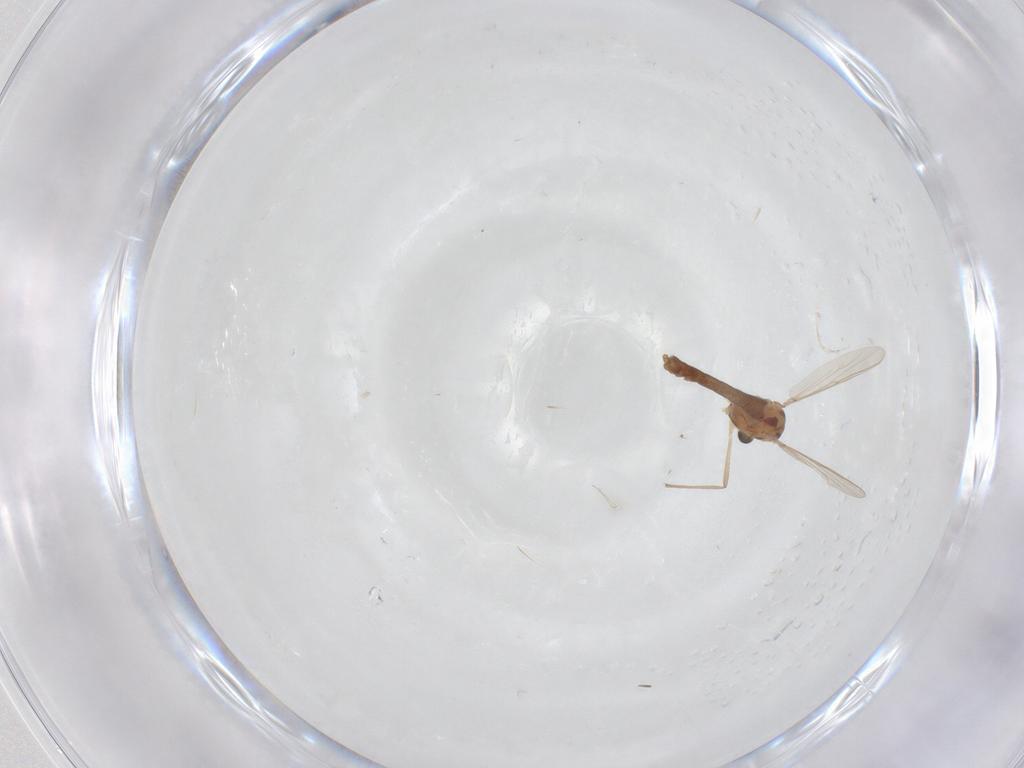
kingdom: Animalia
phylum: Arthropoda
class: Insecta
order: Diptera
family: Chironomidae
